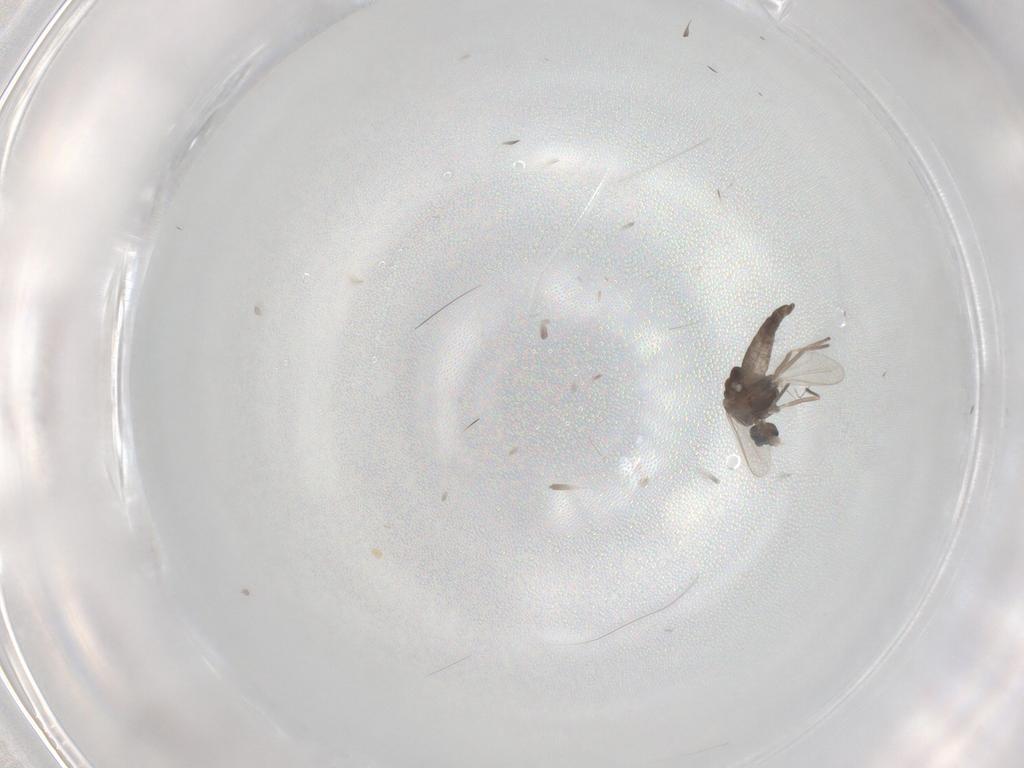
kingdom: Animalia
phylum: Arthropoda
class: Insecta
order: Diptera
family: Chironomidae
